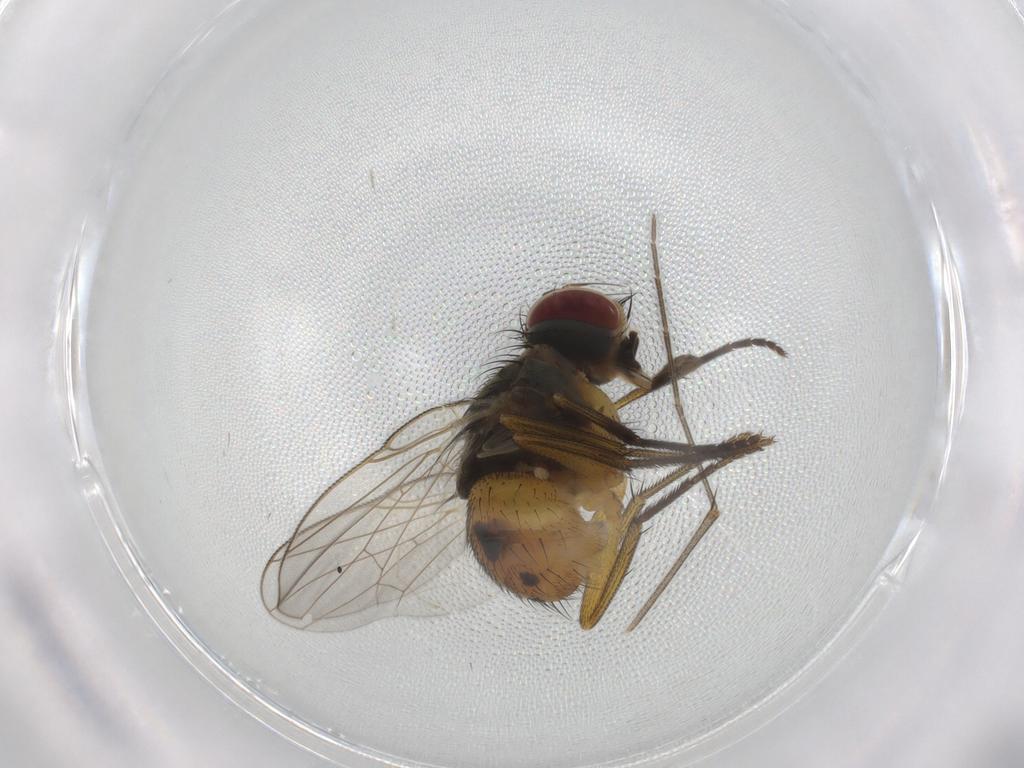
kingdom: Animalia
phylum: Arthropoda
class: Insecta
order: Diptera
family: Muscidae
